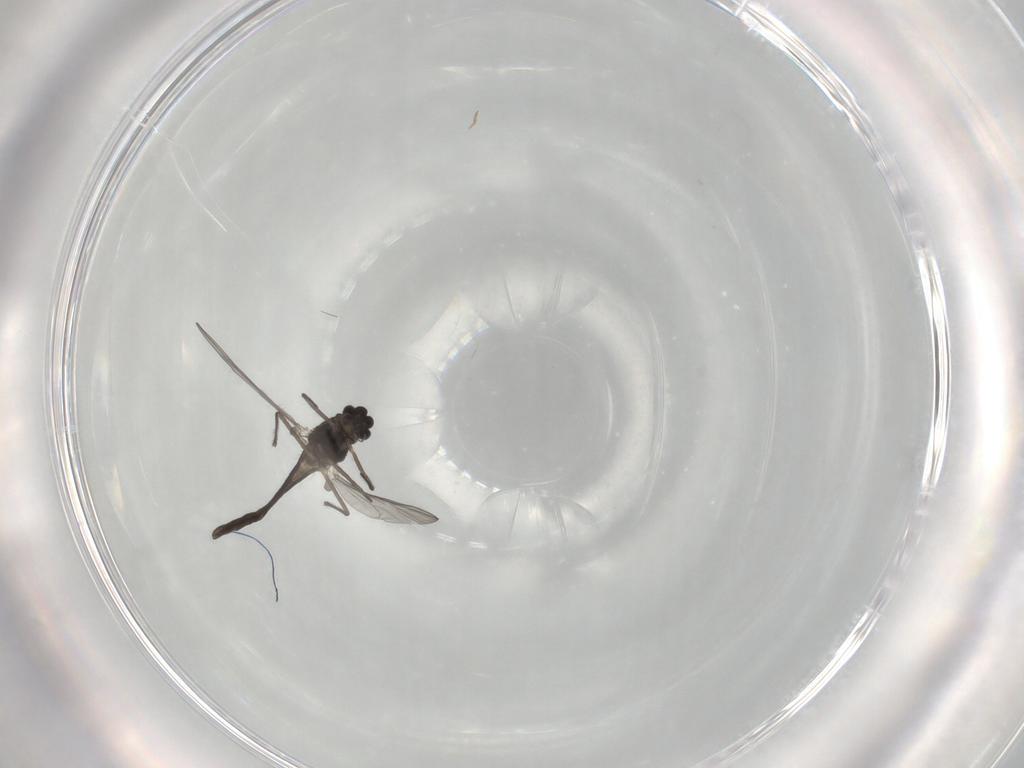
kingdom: Animalia
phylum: Arthropoda
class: Insecta
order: Diptera
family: Chironomidae
